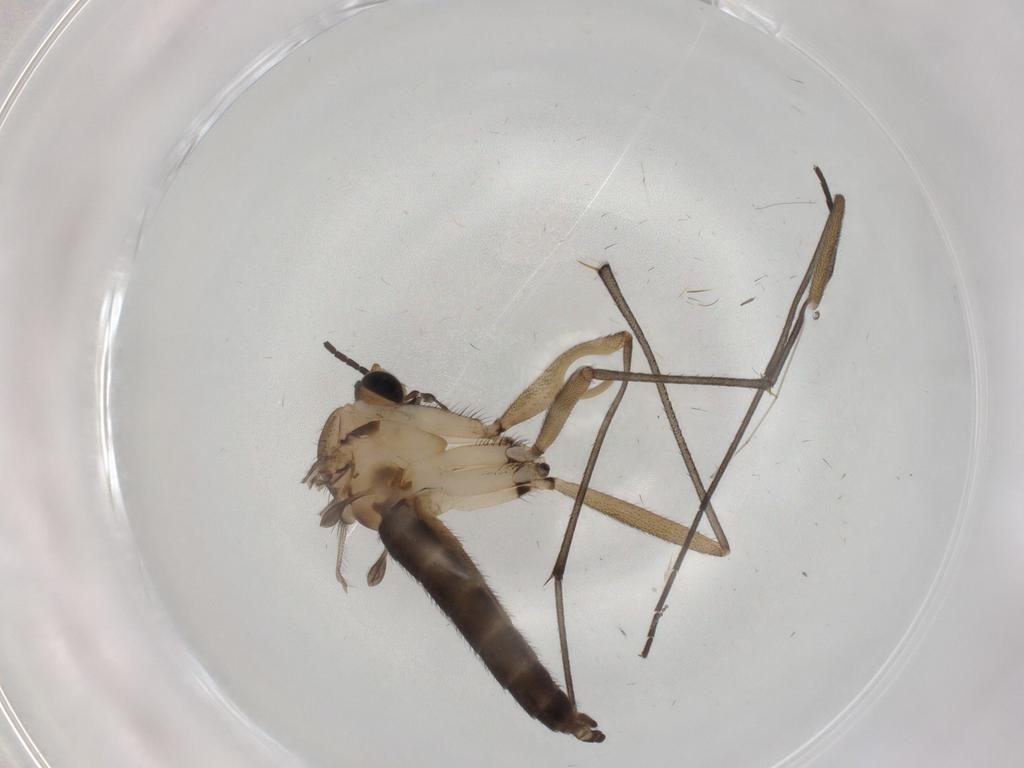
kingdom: Animalia
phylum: Arthropoda
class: Insecta
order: Diptera
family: Sciaridae
